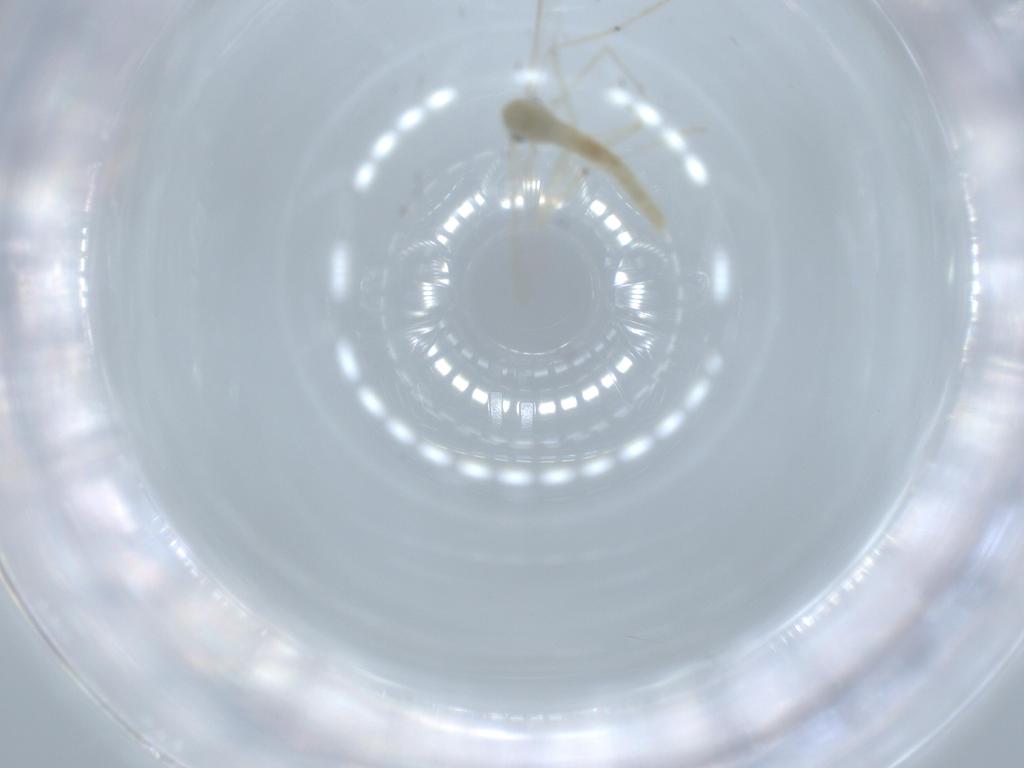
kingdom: Animalia
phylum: Arthropoda
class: Insecta
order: Diptera
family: Chironomidae
